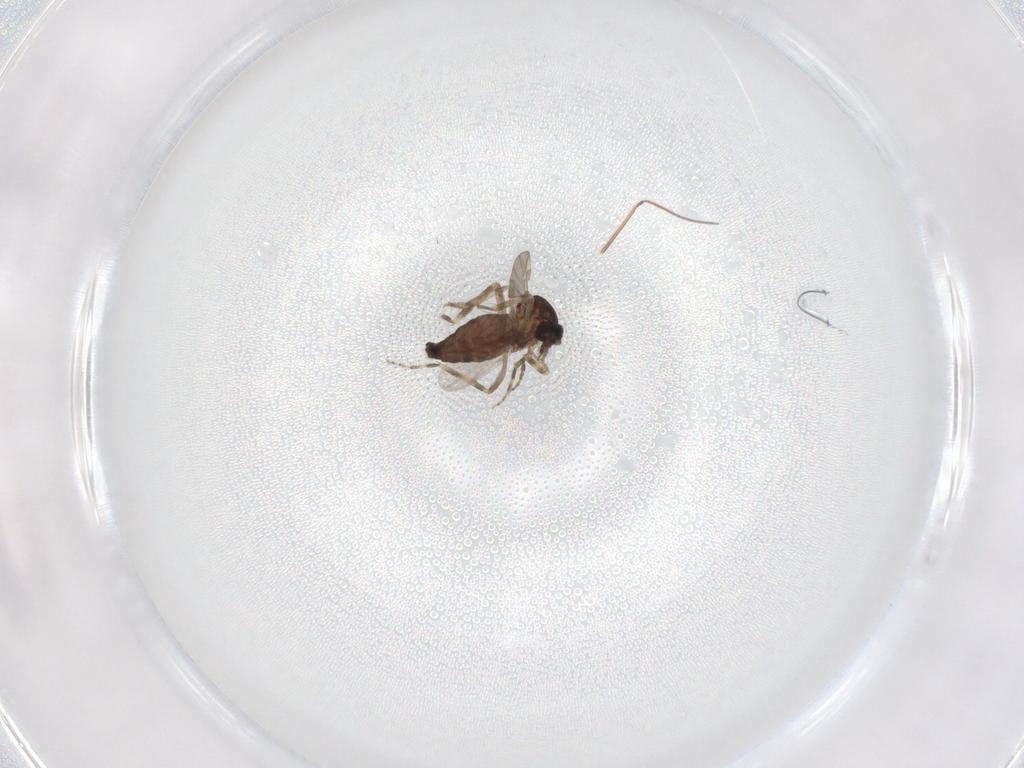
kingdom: Animalia
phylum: Arthropoda
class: Insecta
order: Diptera
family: Ceratopogonidae
